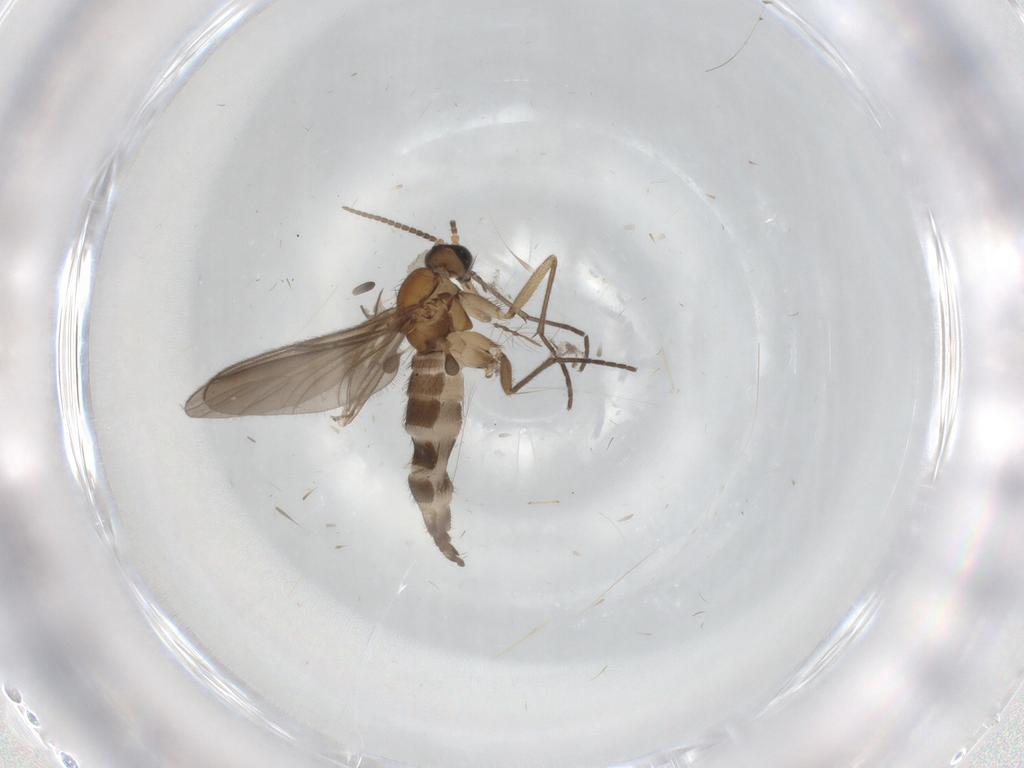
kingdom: Animalia
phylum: Arthropoda
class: Insecta
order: Diptera
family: Sciaridae
